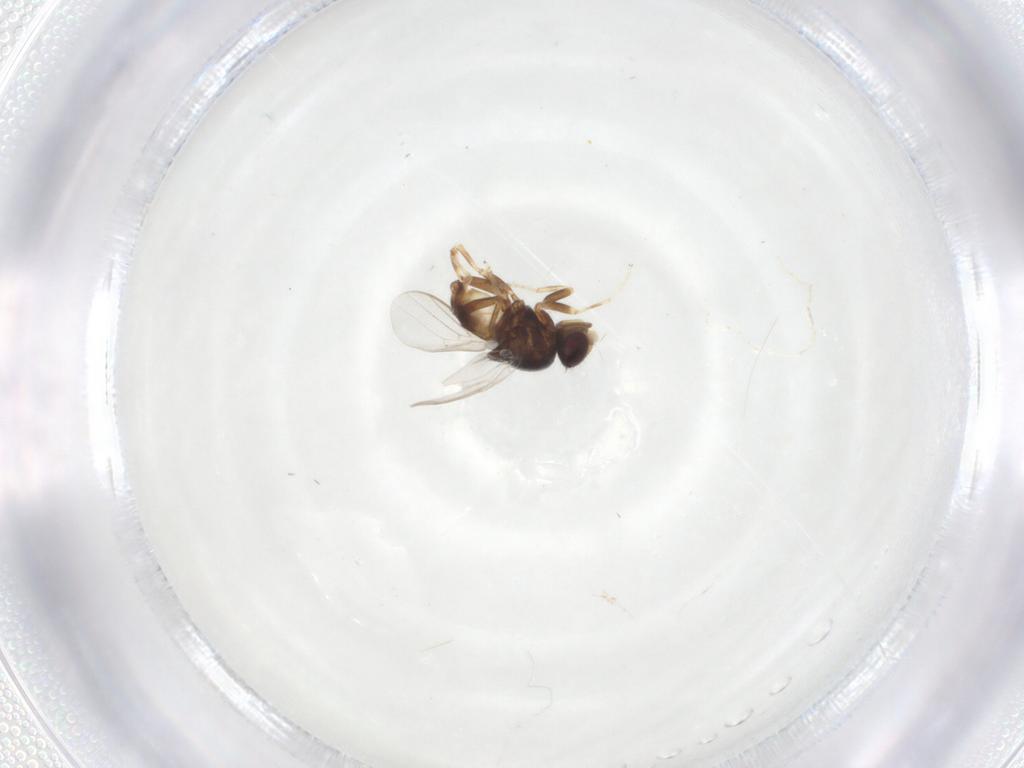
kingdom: Animalia
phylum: Arthropoda
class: Insecta
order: Diptera
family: Chloropidae
